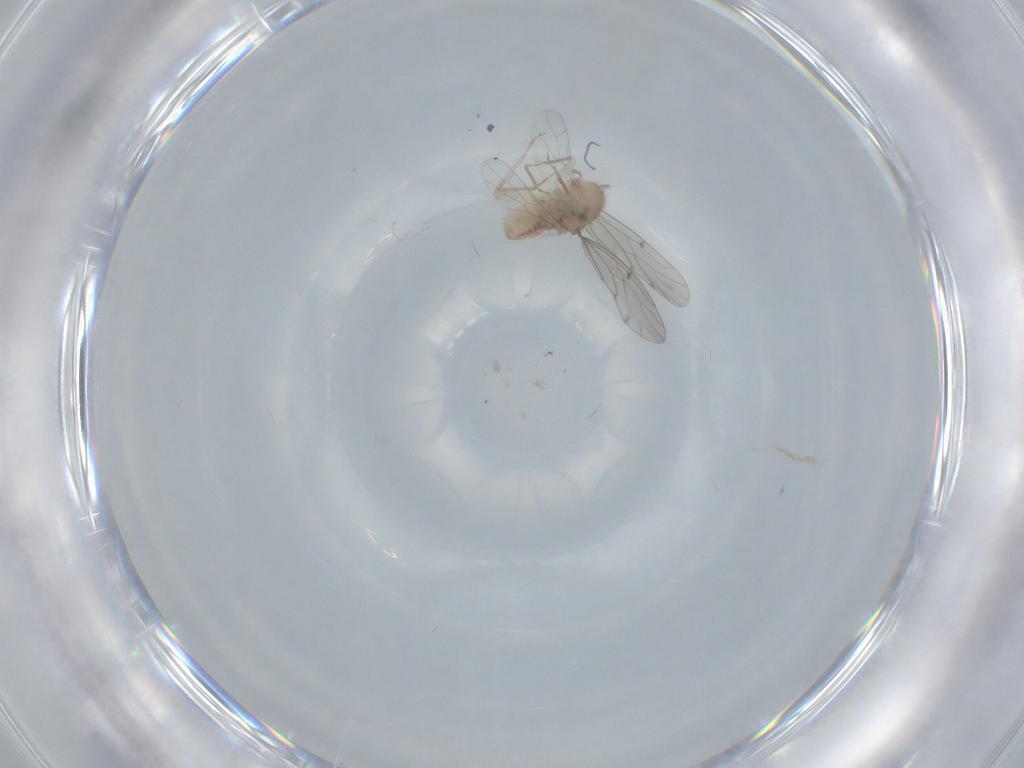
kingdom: Animalia
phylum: Arthropoda
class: Insecta
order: Psocodea
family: Ectopsocidae
